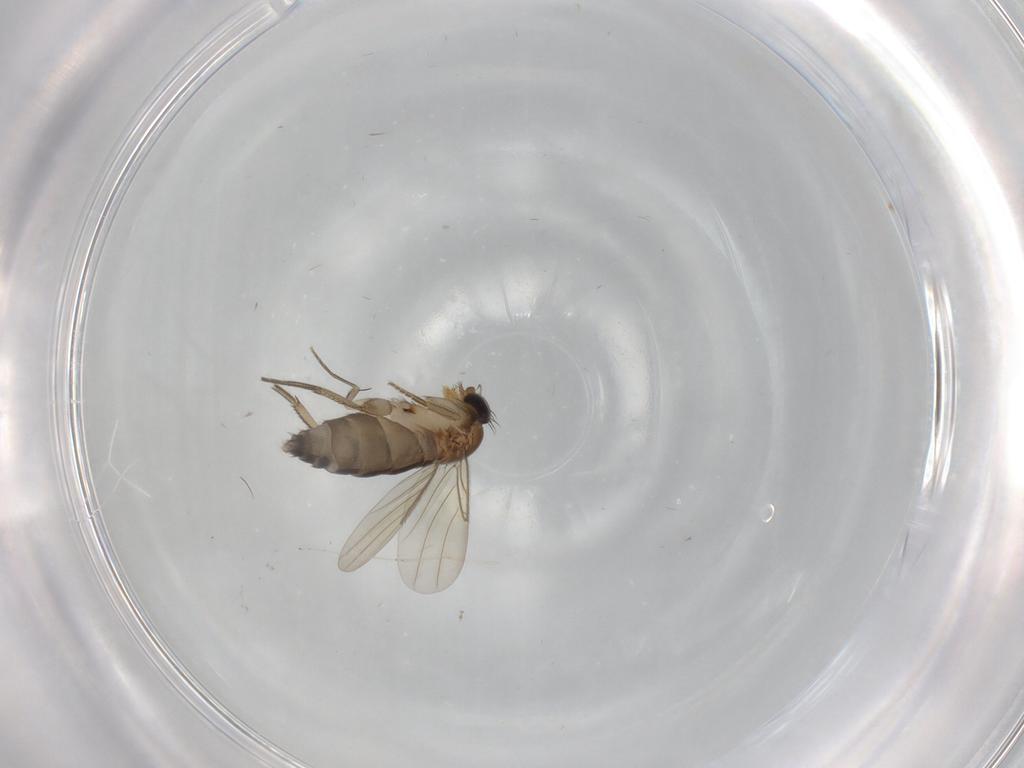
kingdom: Animalia
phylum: Arthropoda
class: Insecta
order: Diptera
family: Phoridae
